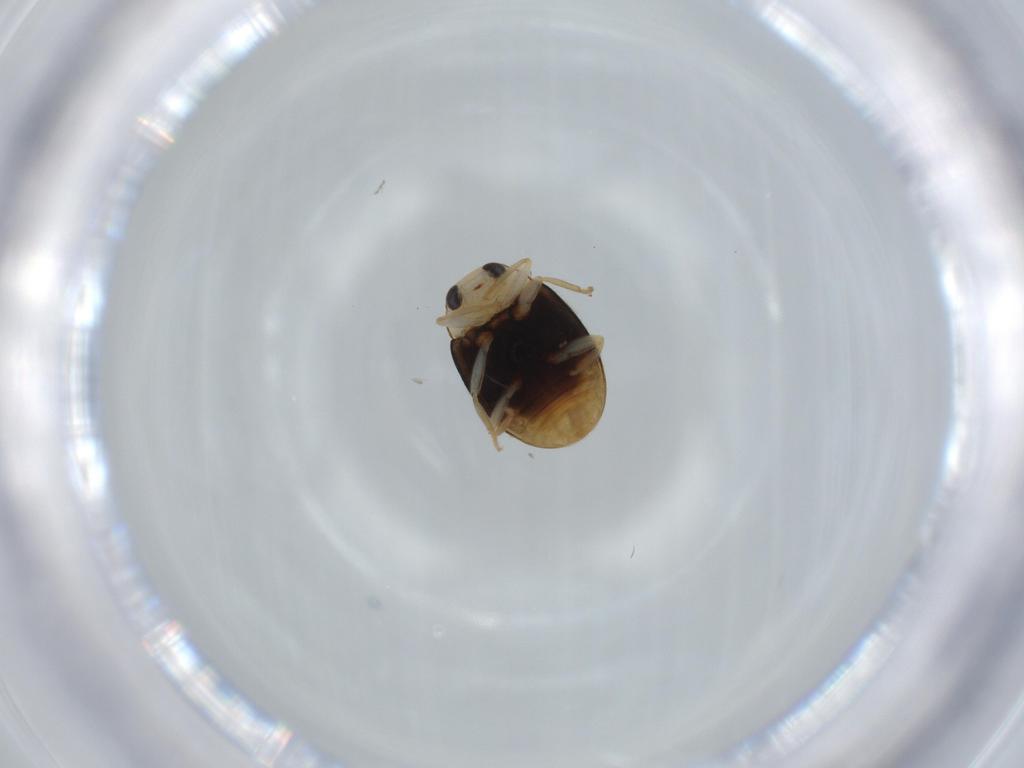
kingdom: Animalia
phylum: Arthropoda
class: Insecta
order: Coleoptera
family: Coccinellidae
